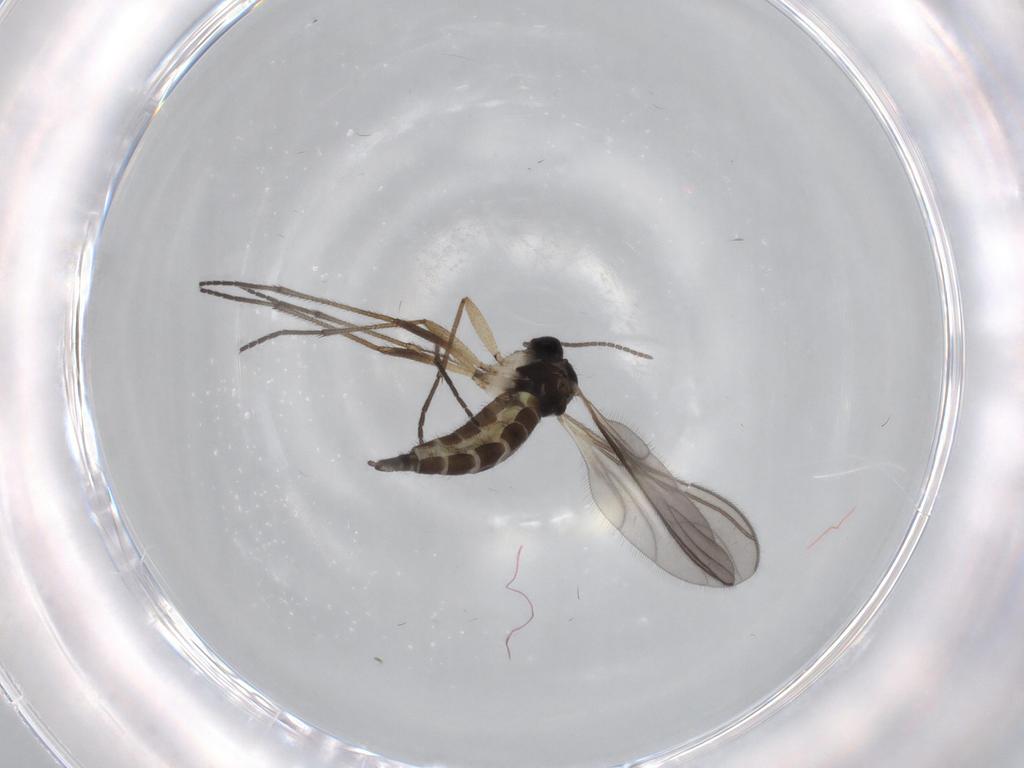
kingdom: Animalia
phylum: Arthropoda
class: Insecta
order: Diptera
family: Sciaridae
